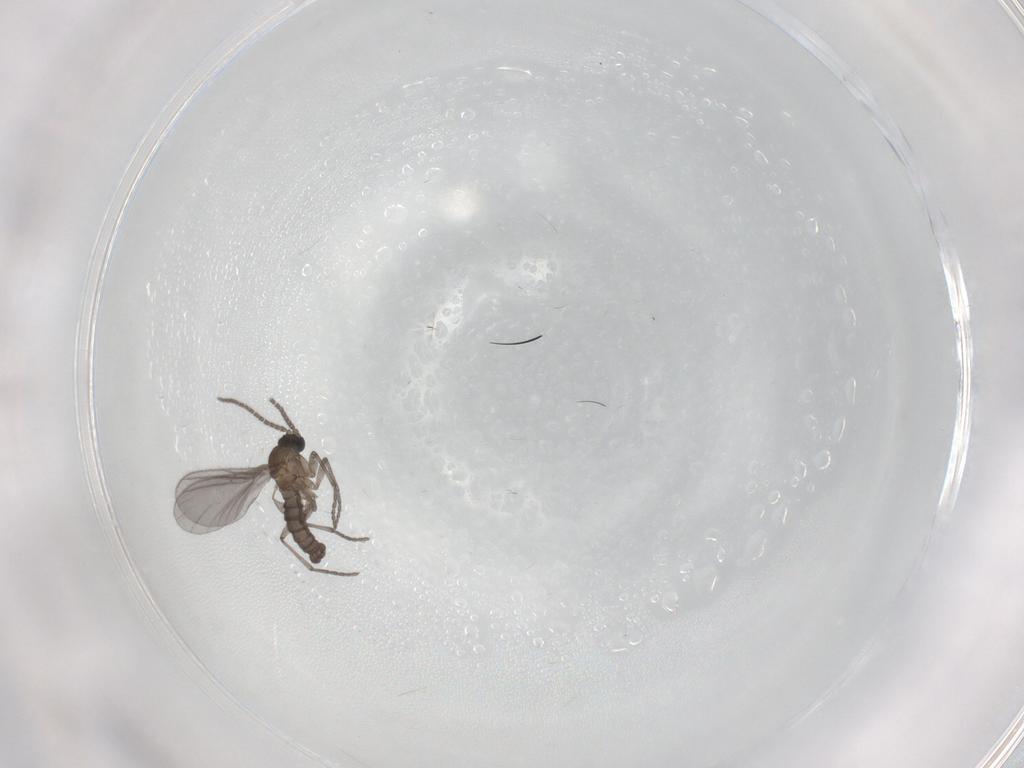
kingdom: Animalia
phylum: Arthropoda
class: Insecta
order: Diptera
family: Sciaridae
